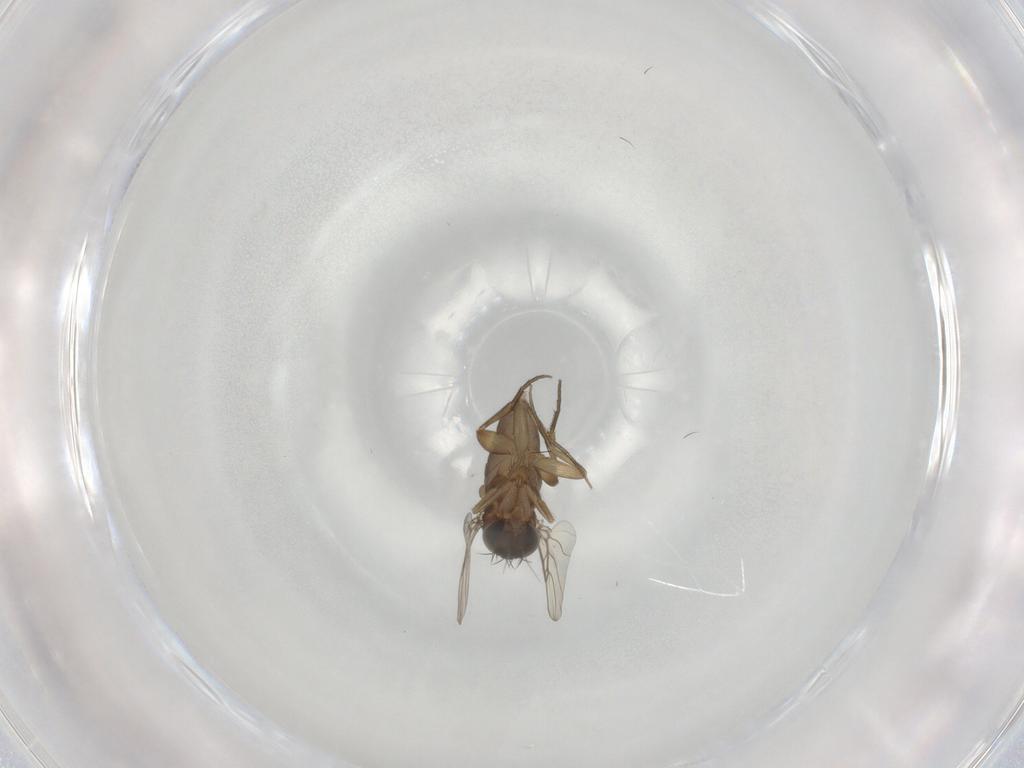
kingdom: Animalia
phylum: Arthropoda
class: Insecta
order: Diptera
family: Phoridae
